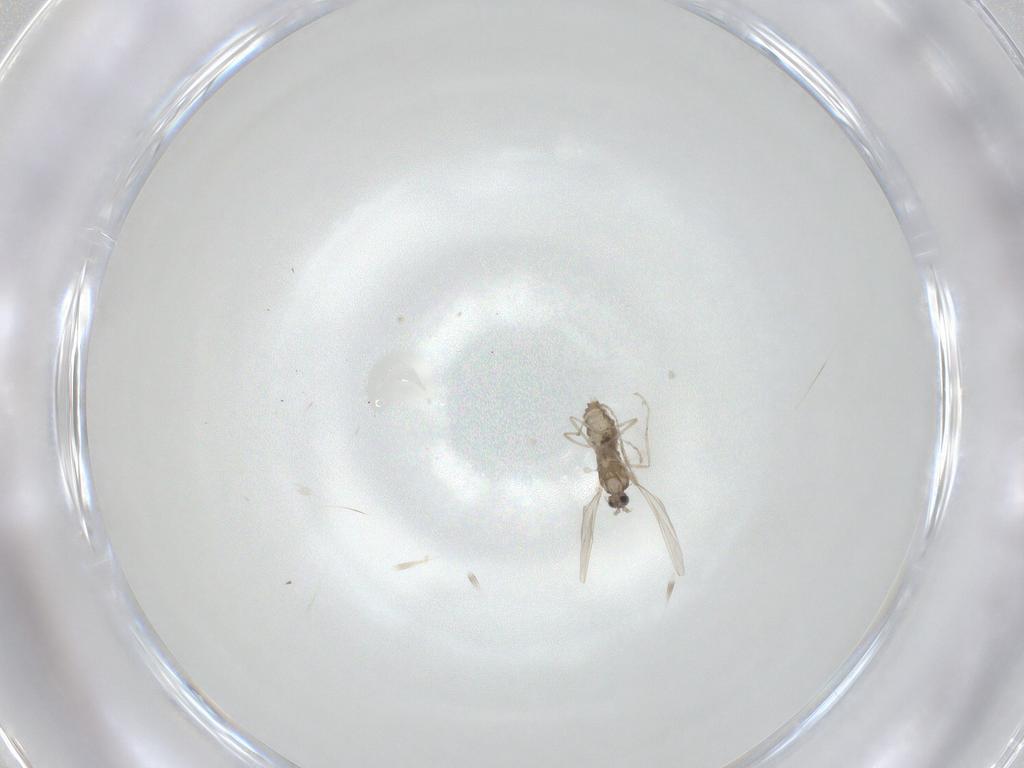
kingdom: Animalia
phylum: Arthropoda
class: Insecta
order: Diptera
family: Cecidomyiidae
